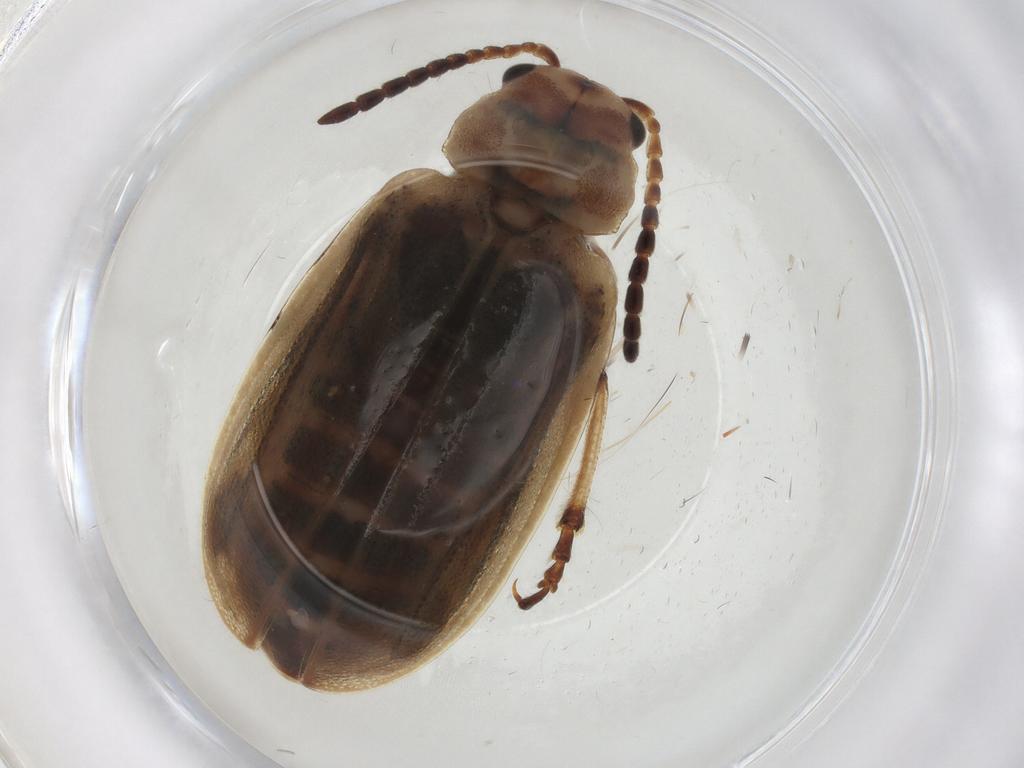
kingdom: Animalia
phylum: Arthropoda
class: Insecta
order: Coleoptera
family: Chrysomelidae
